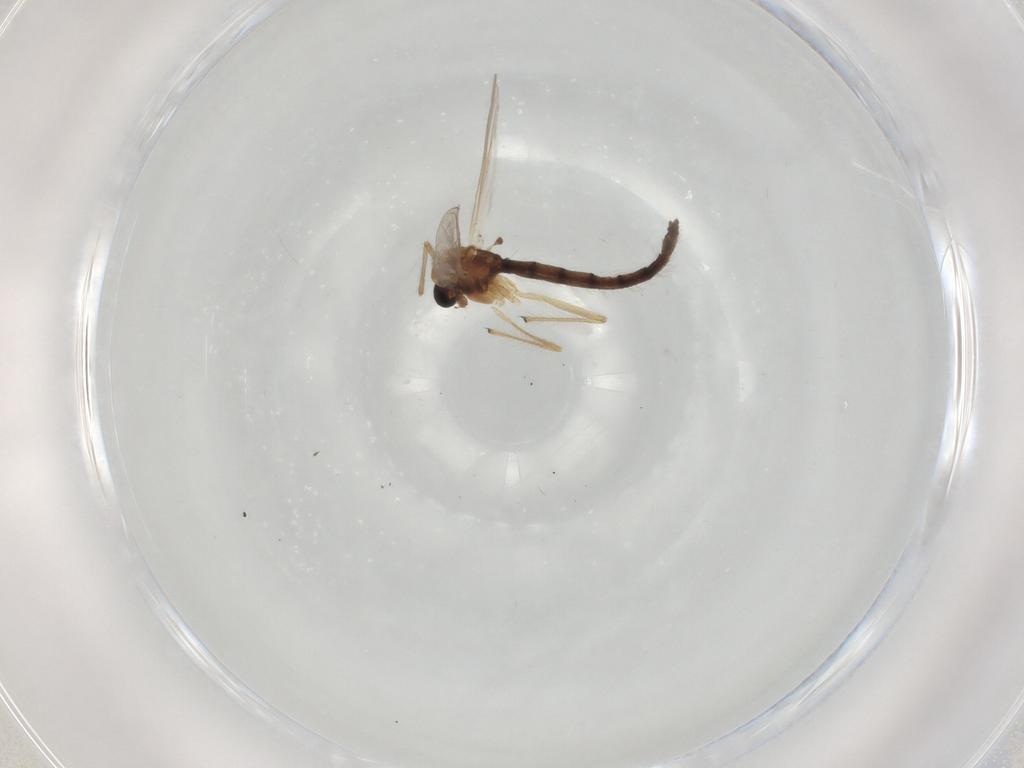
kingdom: Animalia
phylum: Arthropoda
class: Insecta
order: Diptera
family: Chironomidae
